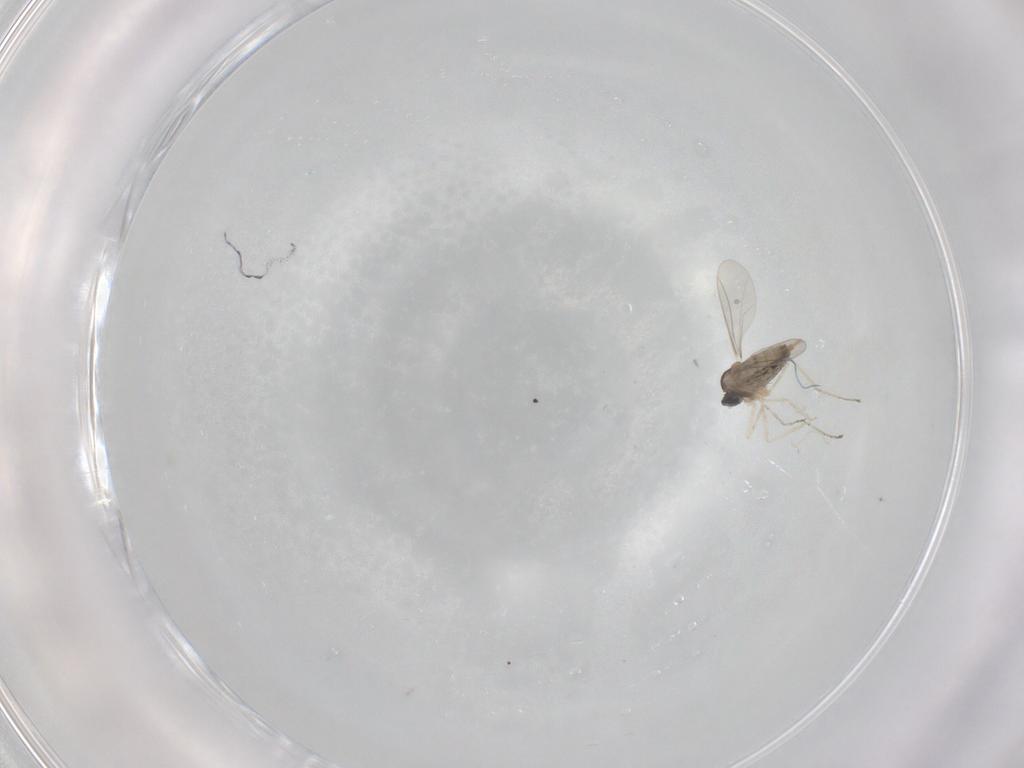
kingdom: Animalia
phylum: Arthropoda
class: Insecta
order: Diptera
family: Cecidomyiidae
